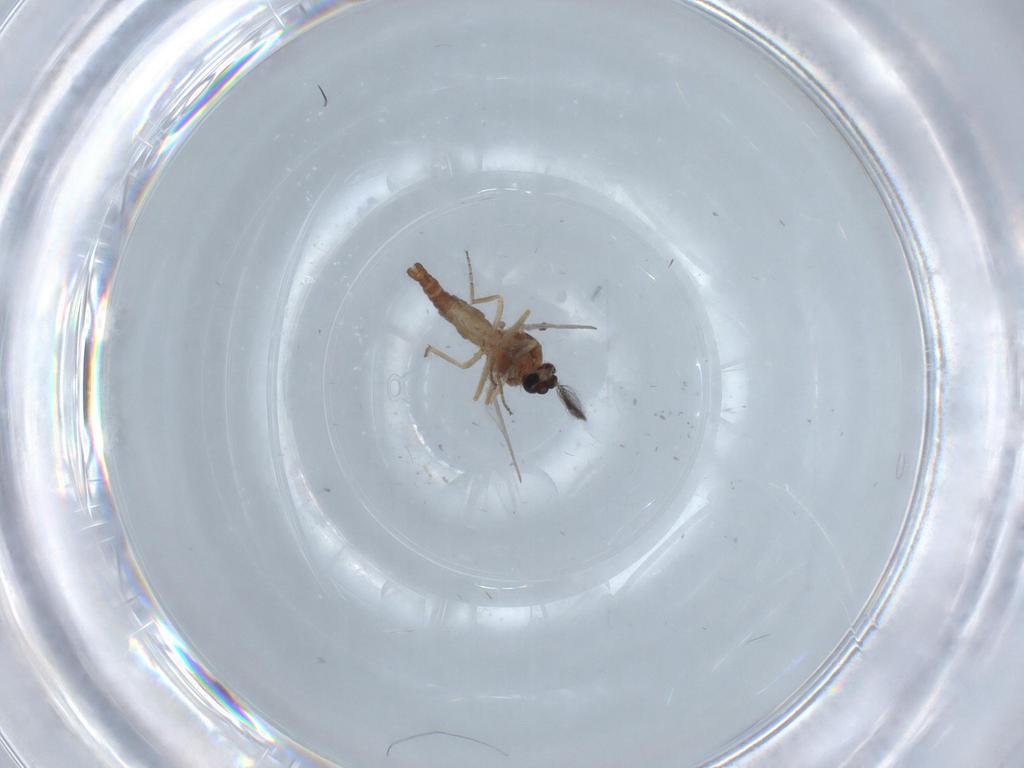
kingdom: Animalia
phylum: Arthropoda
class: Insecta
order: Diptera
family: Ceratopogonidae
